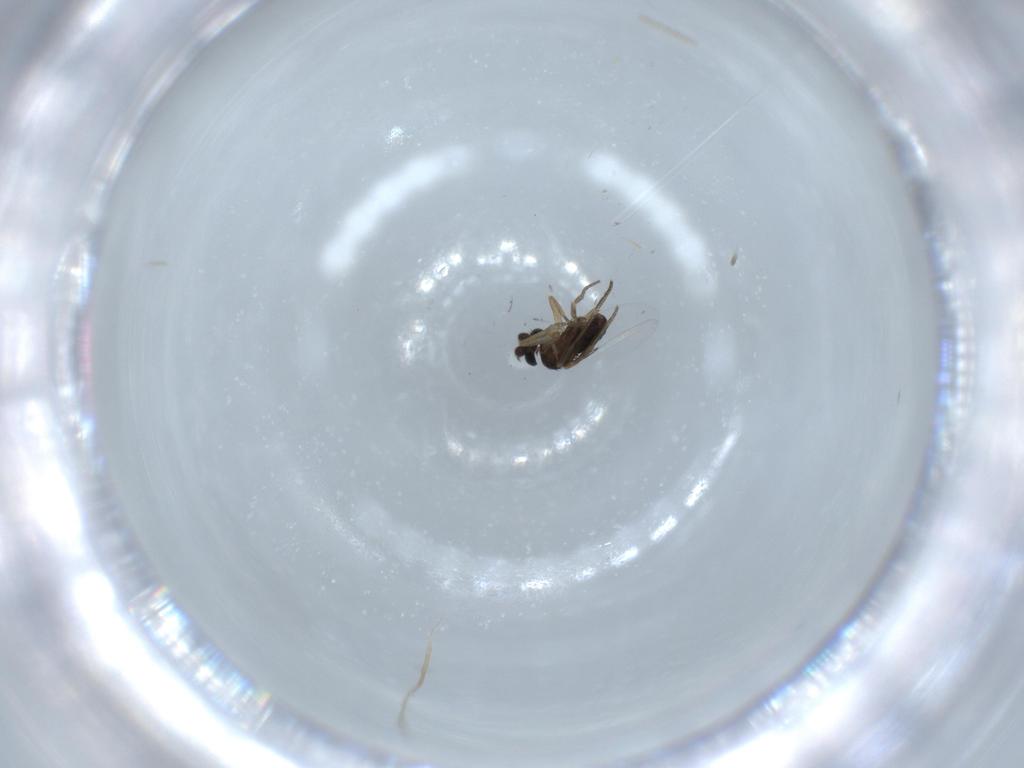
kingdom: Animalia
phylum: Arthropoda
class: Insecta
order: Diptera
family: Phoridae
